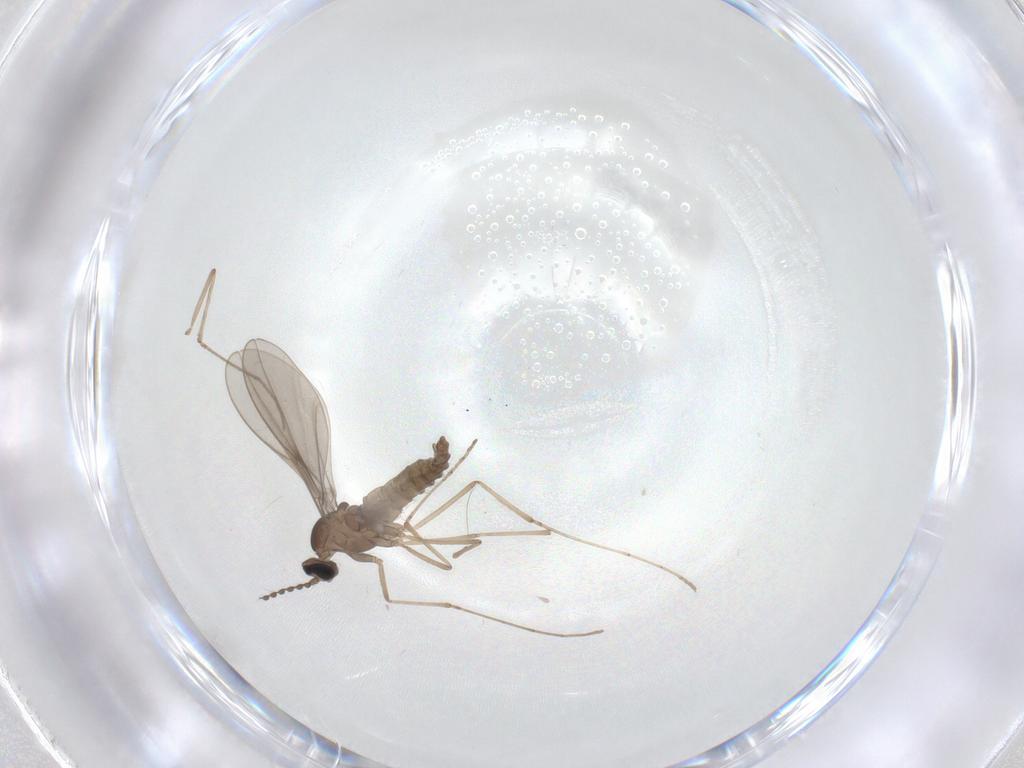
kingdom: Animalia
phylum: Arthropoda
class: Insecta
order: Diptera
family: Cecidomyiidae
